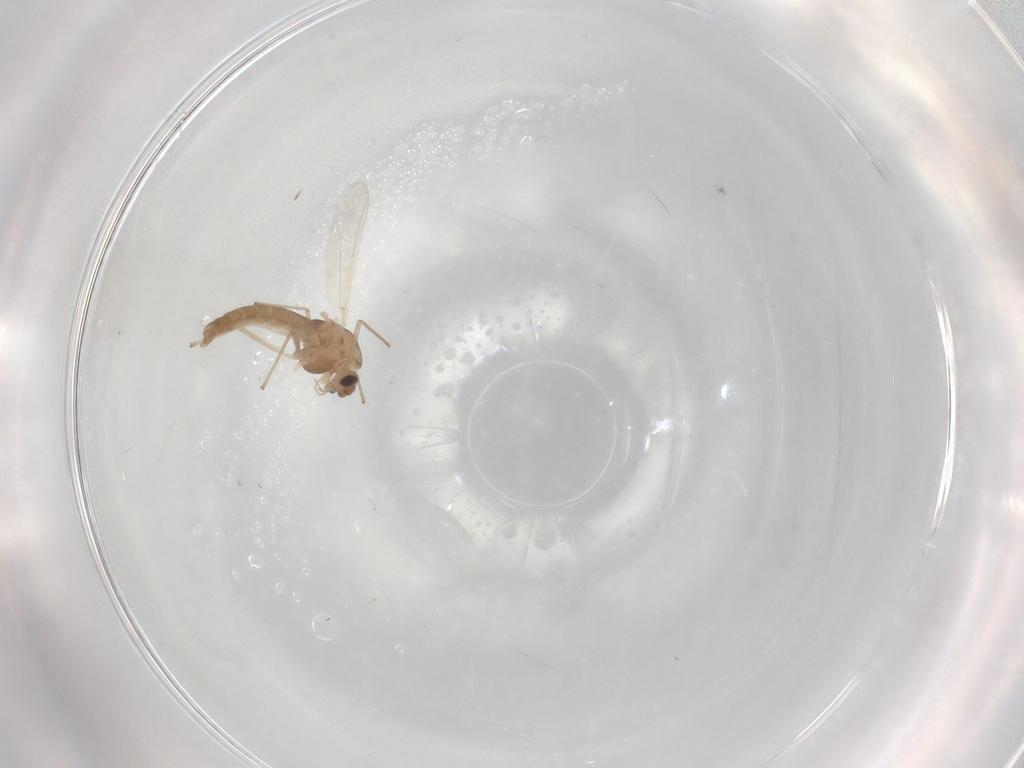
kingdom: Animalia
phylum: Arthropoda
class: Insecta
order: Diptera
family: Chironomidae
